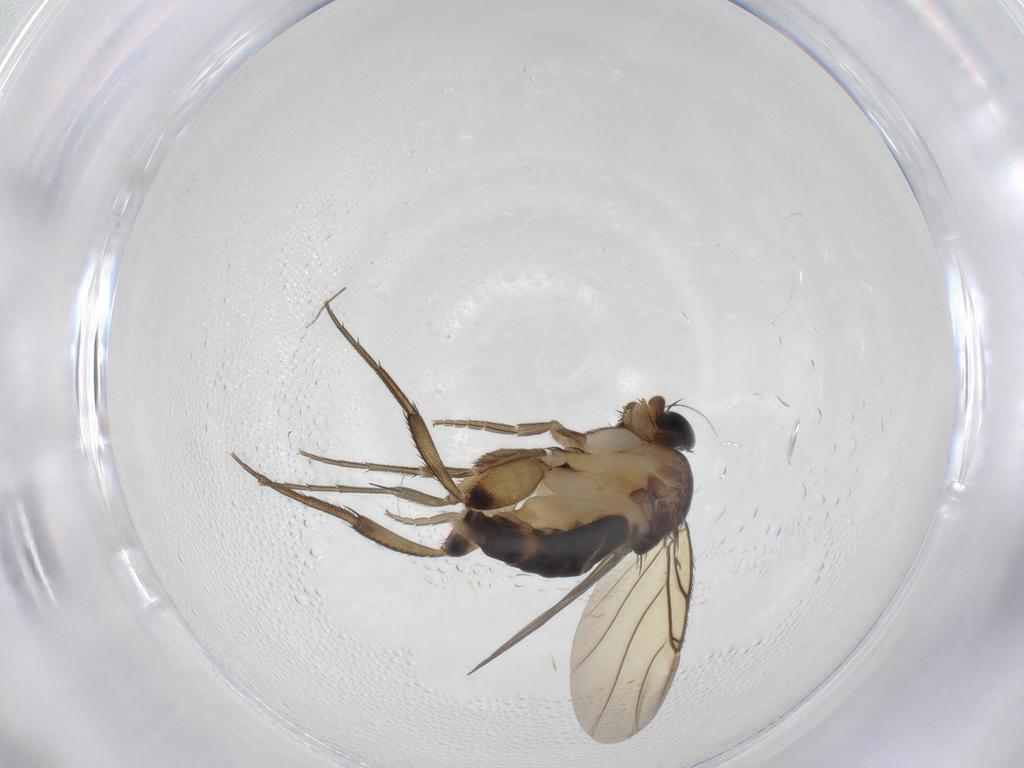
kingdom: Animalia
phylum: Arthropoda
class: Insecta
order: Diptera
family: Phoridae
